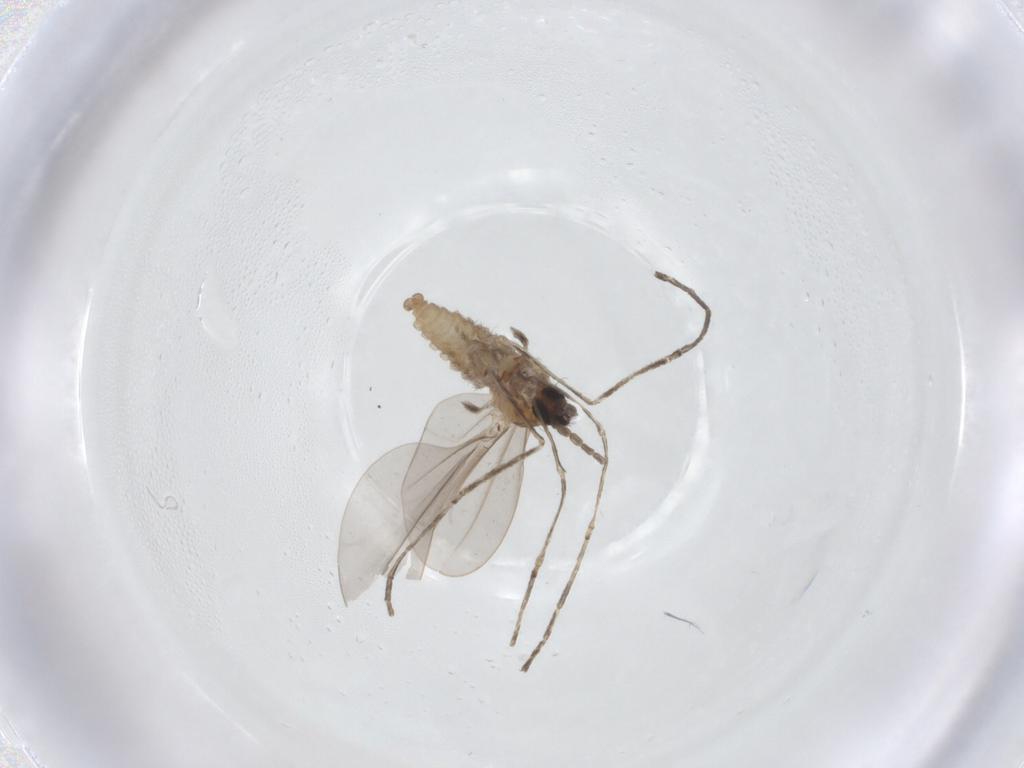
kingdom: Animalia
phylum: Arthropoda
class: Insecta
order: Diptera
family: Cecidomyiidae
